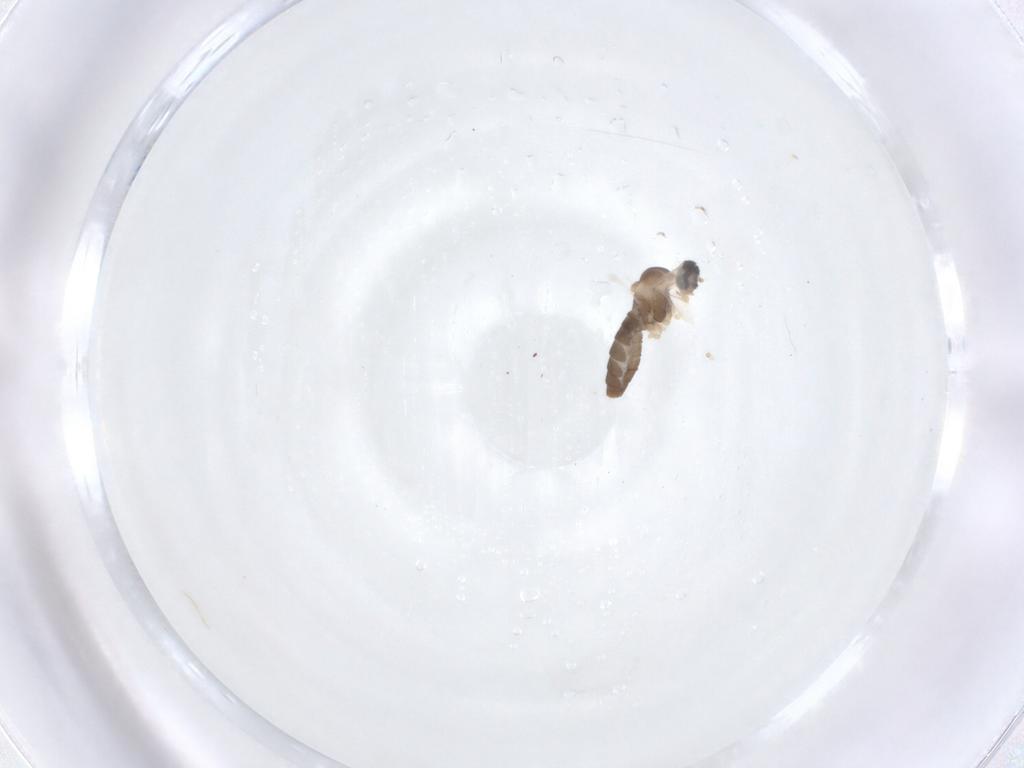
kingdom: Animalia
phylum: Arthropoda
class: Insecta
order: Diptera
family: Cecidomyiidae
